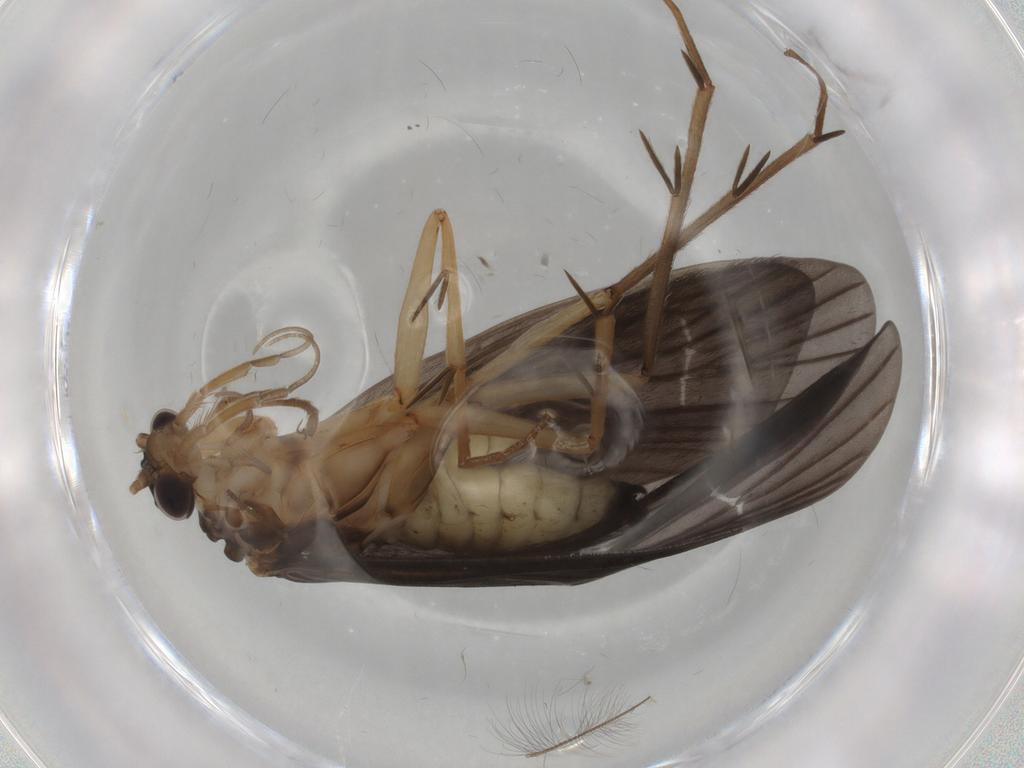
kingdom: Animalia
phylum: Arthropoda
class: Insecta
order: Trichoptera
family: Philopotamidae
